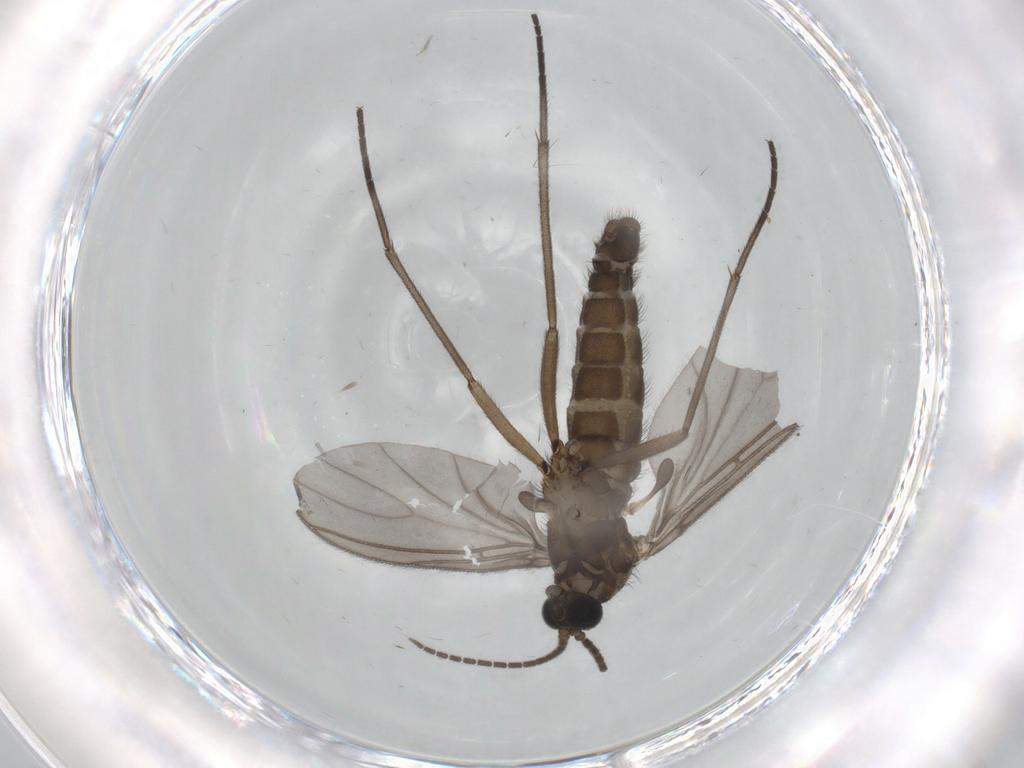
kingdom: Animalia
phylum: Arthropoda
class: Insecta
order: Diptera
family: Sciaridae
